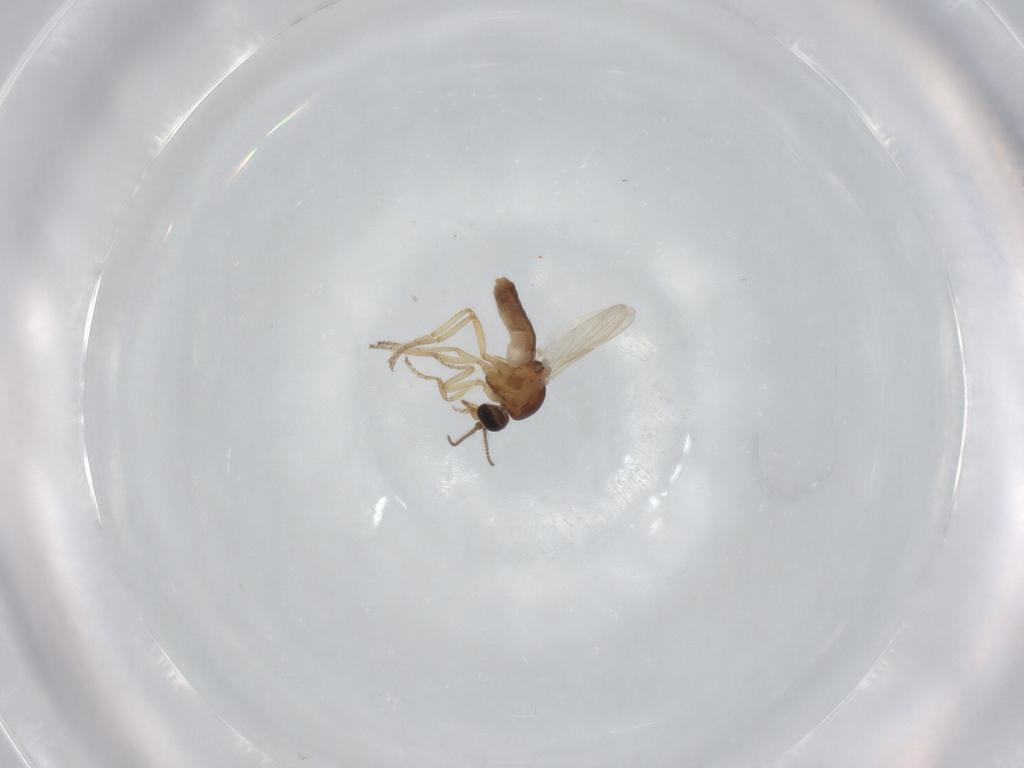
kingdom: Animalia
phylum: Arthropoda
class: Insecta
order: Diptera
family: Ceratopogonidae
